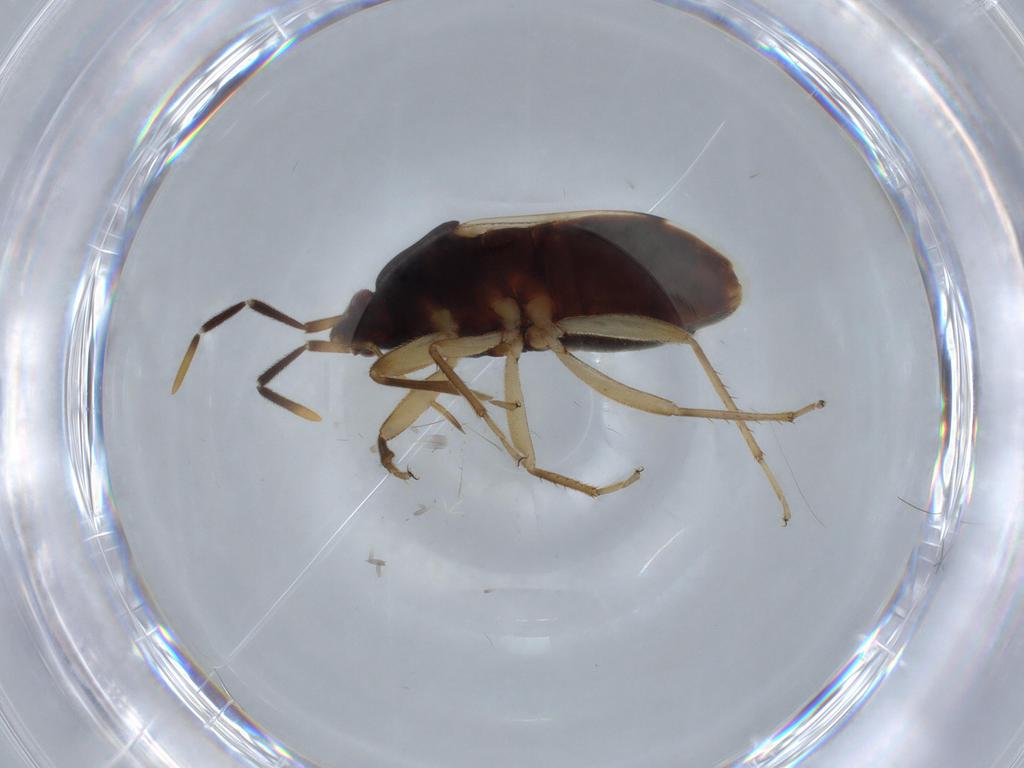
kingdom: Animalia
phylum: Arthropoda
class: Insecta
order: Hemiptera
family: Rhyparochromidae
